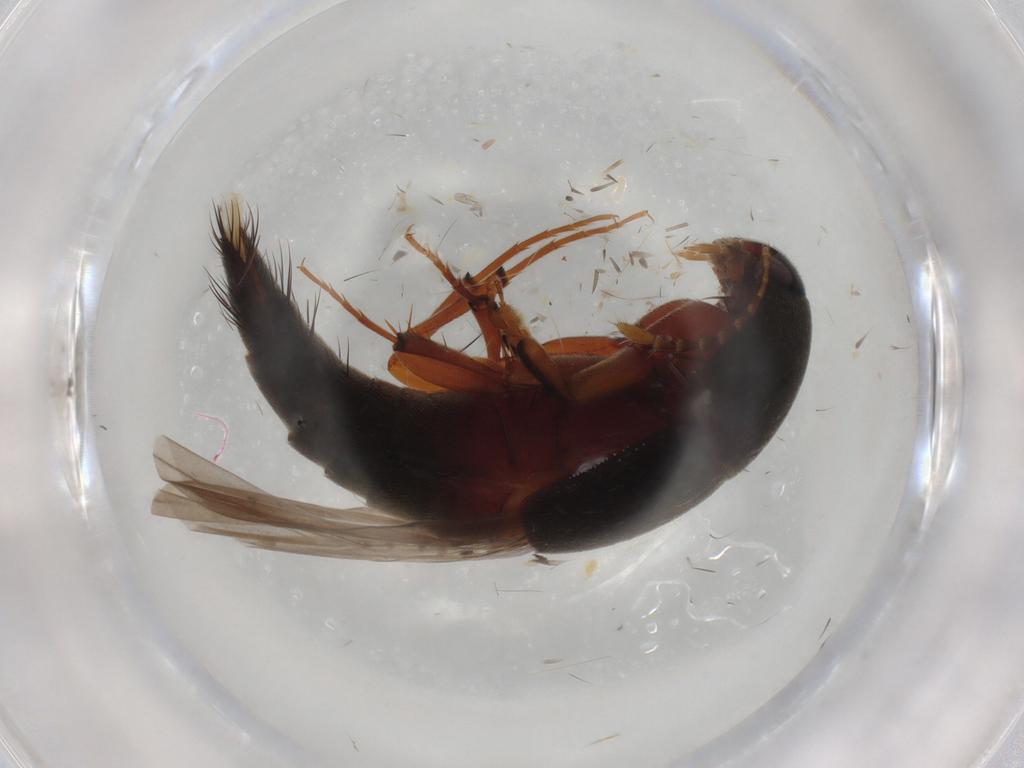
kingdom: Animalia
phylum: Arthropoda
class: Insecta
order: Coleoptera
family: Staphylinidae
